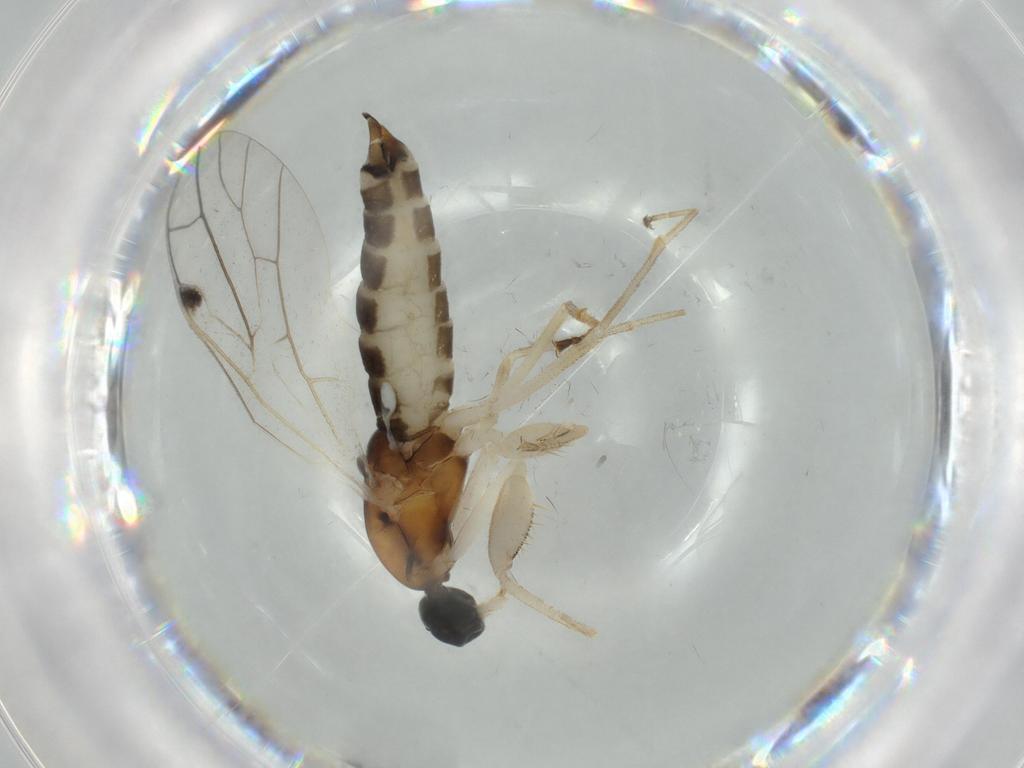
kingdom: Animalia
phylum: Arthropoda
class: Insecta
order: Diptera
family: Empididae
